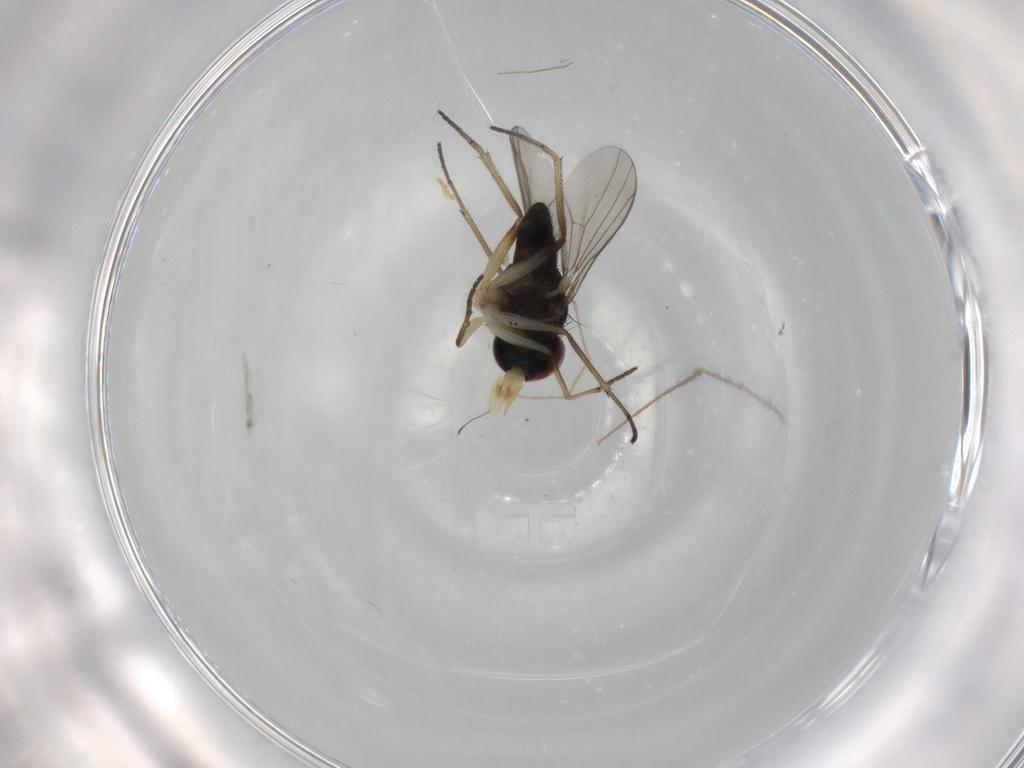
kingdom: Animalia
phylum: Arthropoda
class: Insecta
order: Diptera
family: Dolichopodidae
